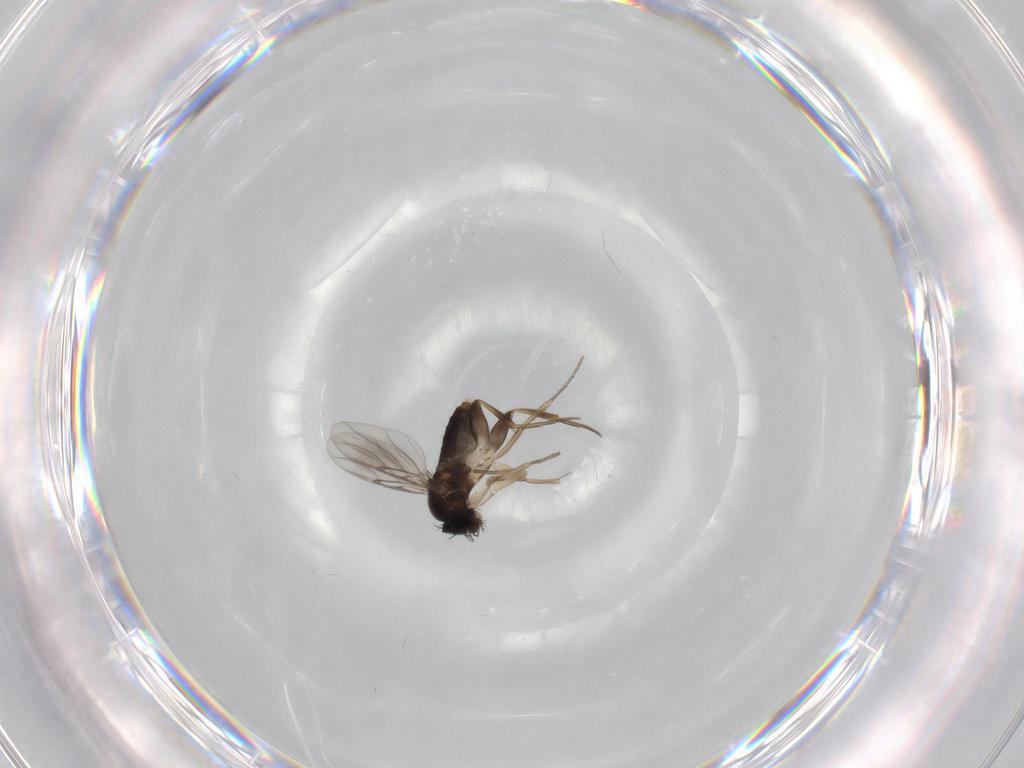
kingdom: Animalia
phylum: Arthropoda
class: Insecta
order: Diptera
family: Phoridae
